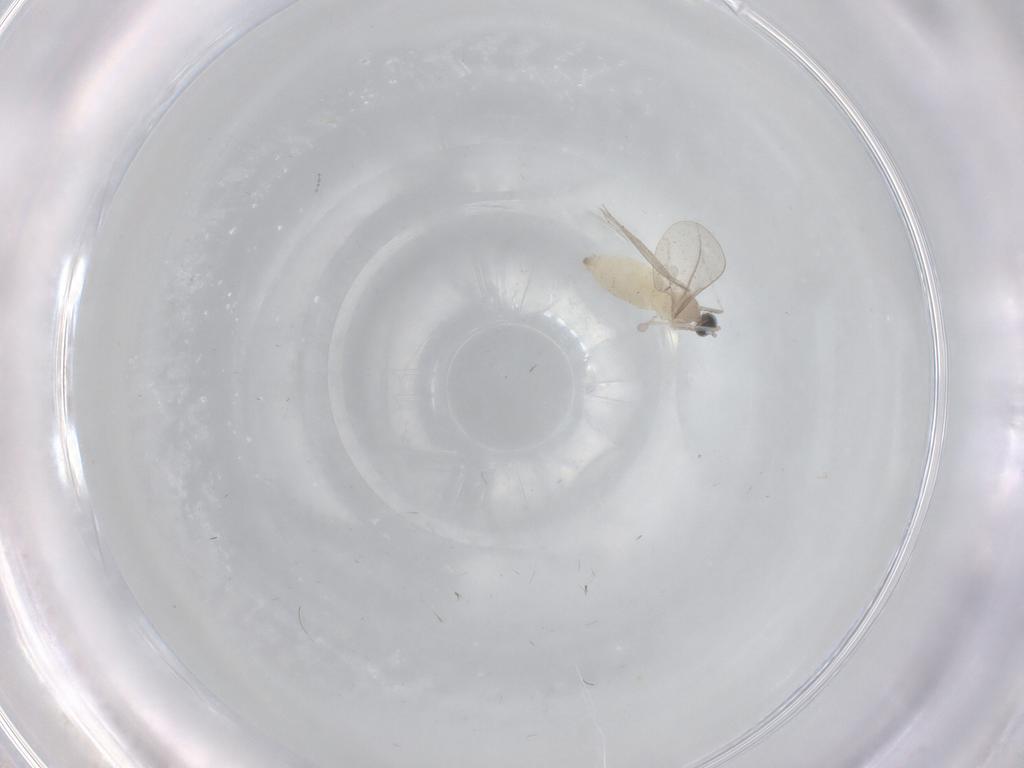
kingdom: Animalia
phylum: Arthropoda
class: Insecta
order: Diptera
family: Cecidomyiidae
